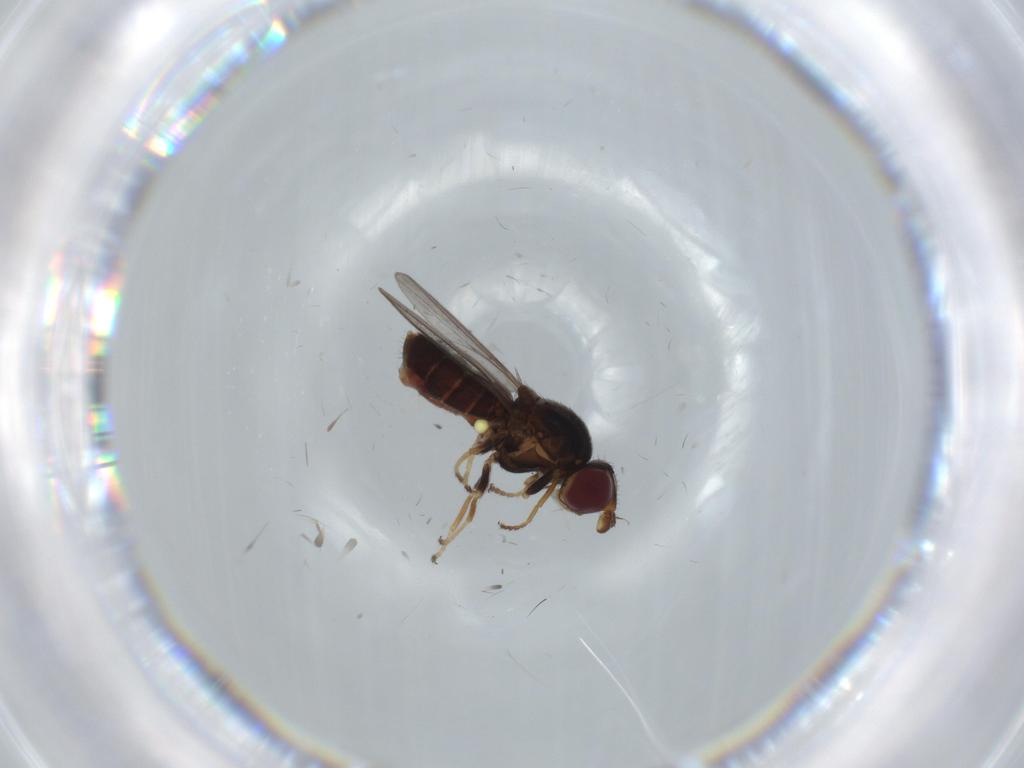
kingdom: Animalia
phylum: Arthropoda
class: Insecta
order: Diptera
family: Chloropidae
